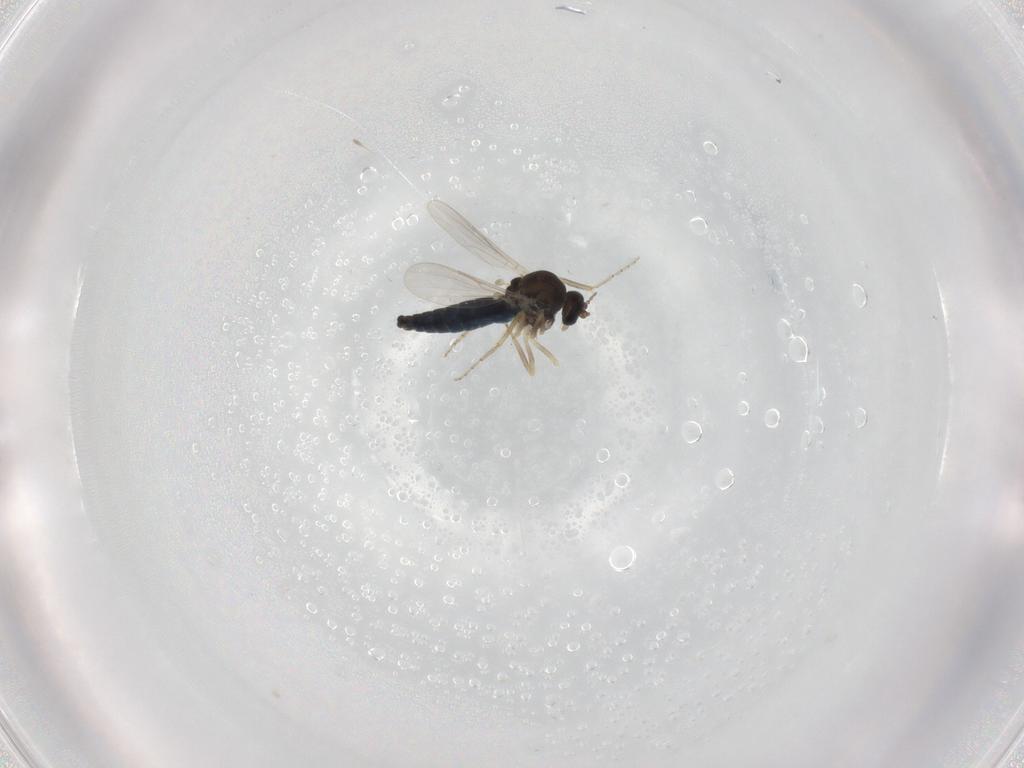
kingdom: Animalia
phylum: Arthropoda
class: Insecta
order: Diptera
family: Ceratopogonidae
